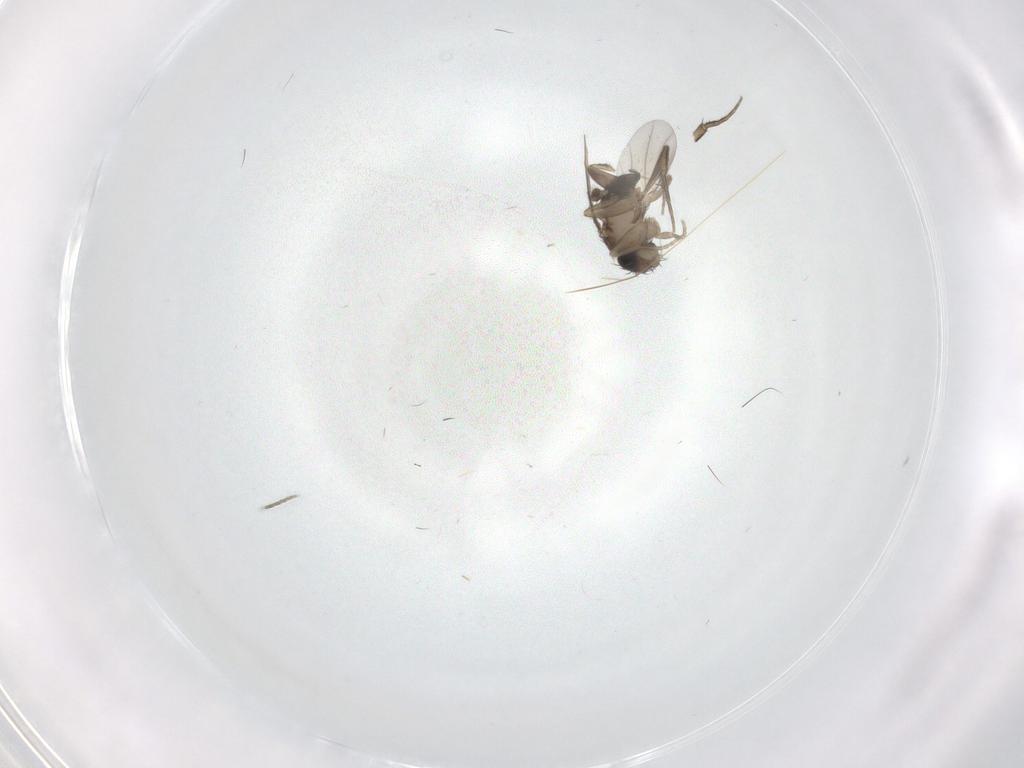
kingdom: Animalia
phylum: Arthropoda
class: Insecta
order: Diptera
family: Phoridae
